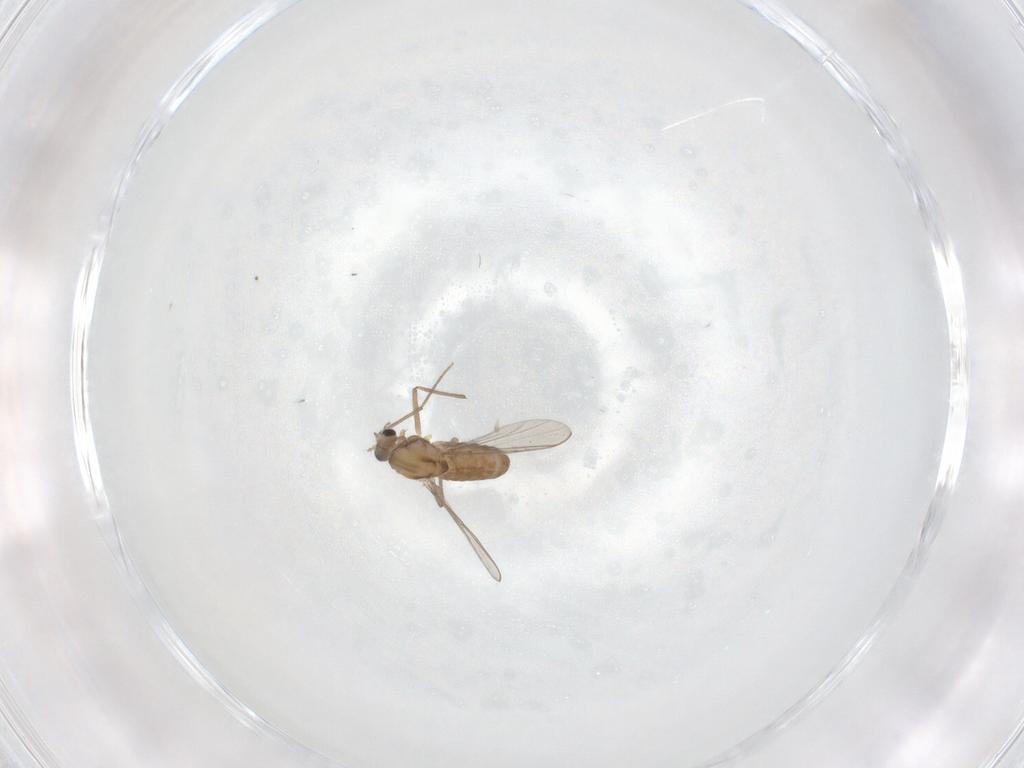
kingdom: Animalia
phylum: Arthropoda
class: Insecta
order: Diptera
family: Chironomidae
